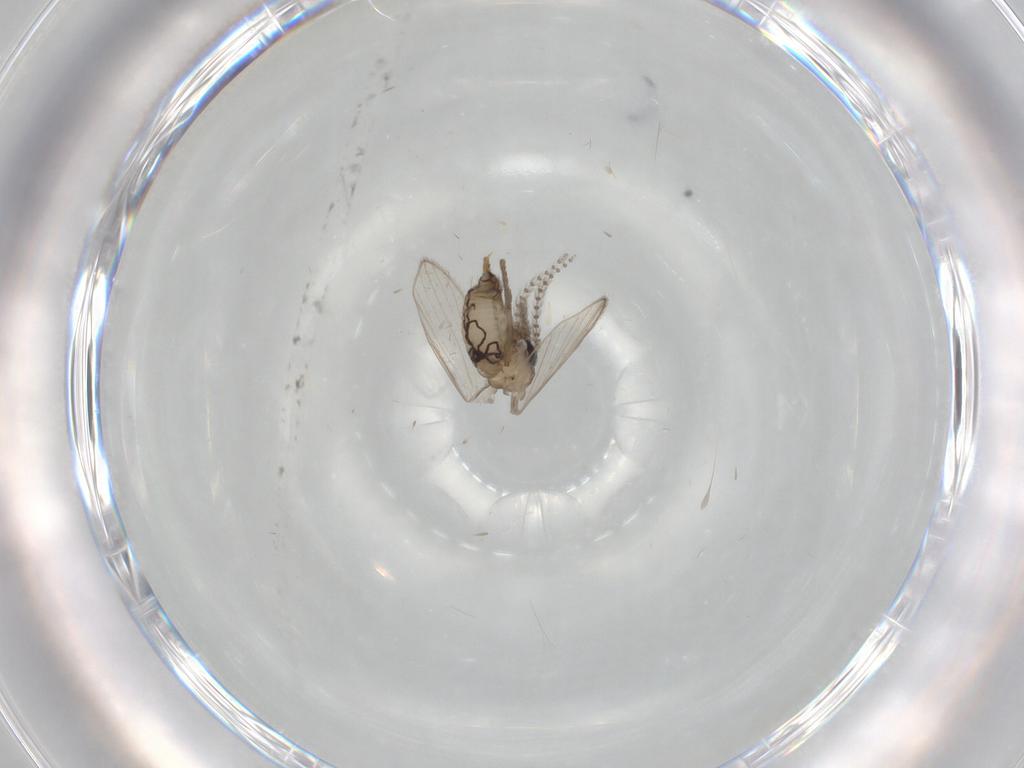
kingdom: Animalia
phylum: Arthropoda
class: Insecta
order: Diptera
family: Psychodidae
